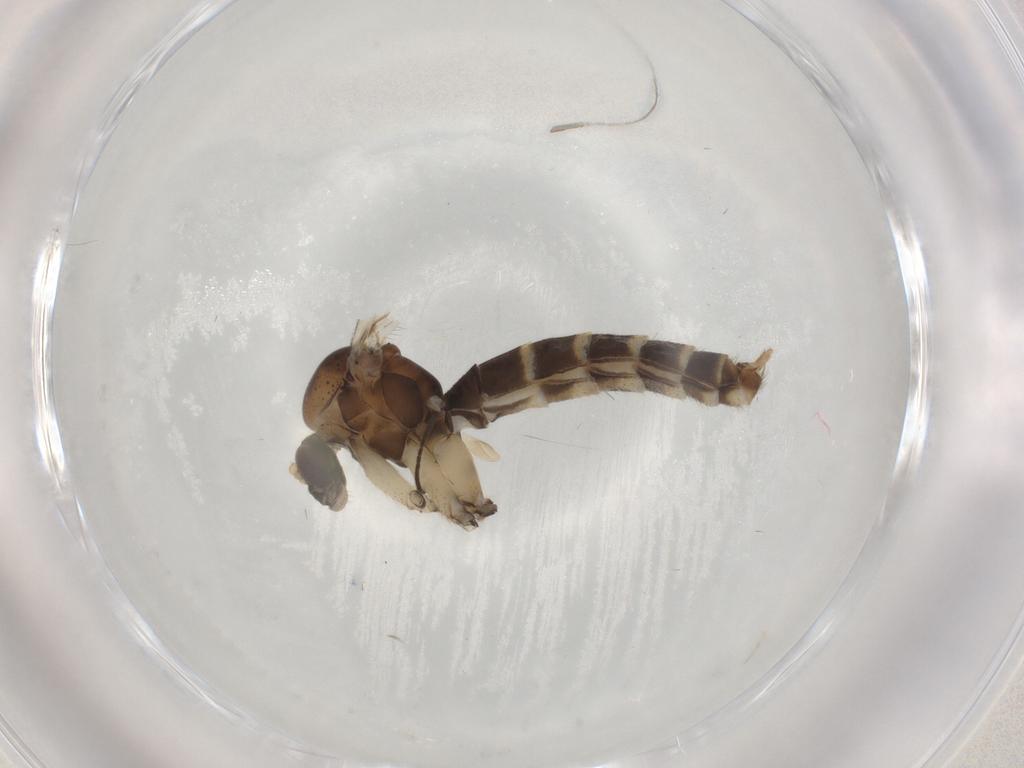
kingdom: Animalia
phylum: Arthropoda
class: Insecta
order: Diptera
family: Mycetophilidae
